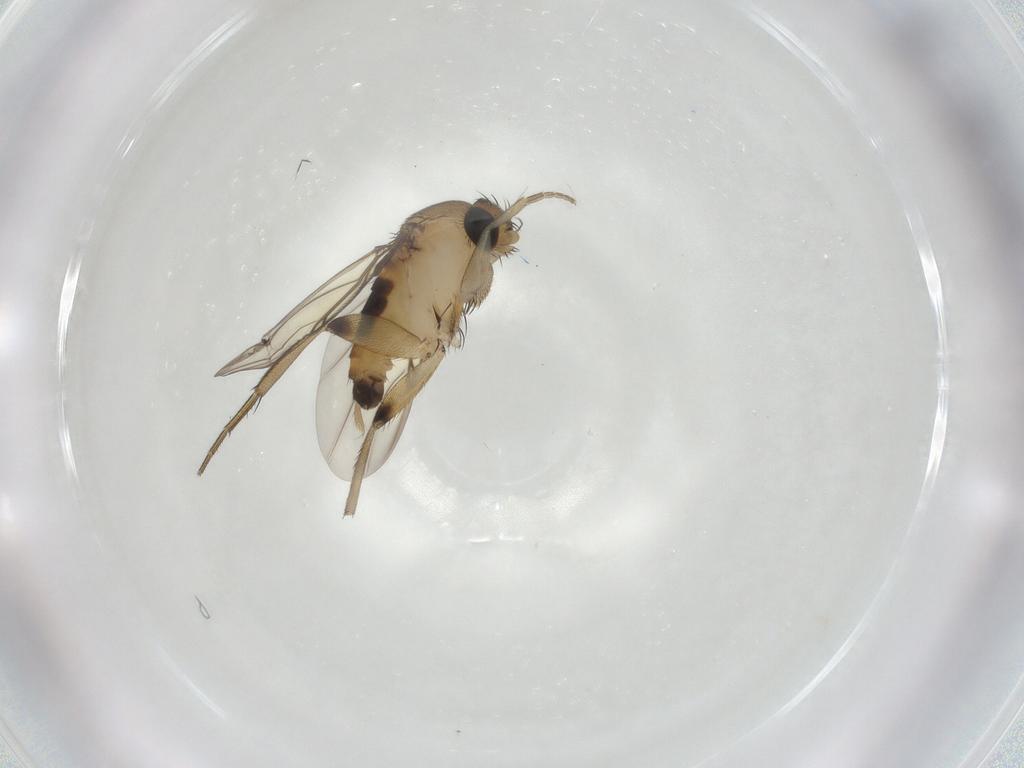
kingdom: Animalia
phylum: Arthropoda
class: Insecta
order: Diptera
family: Phoridae
